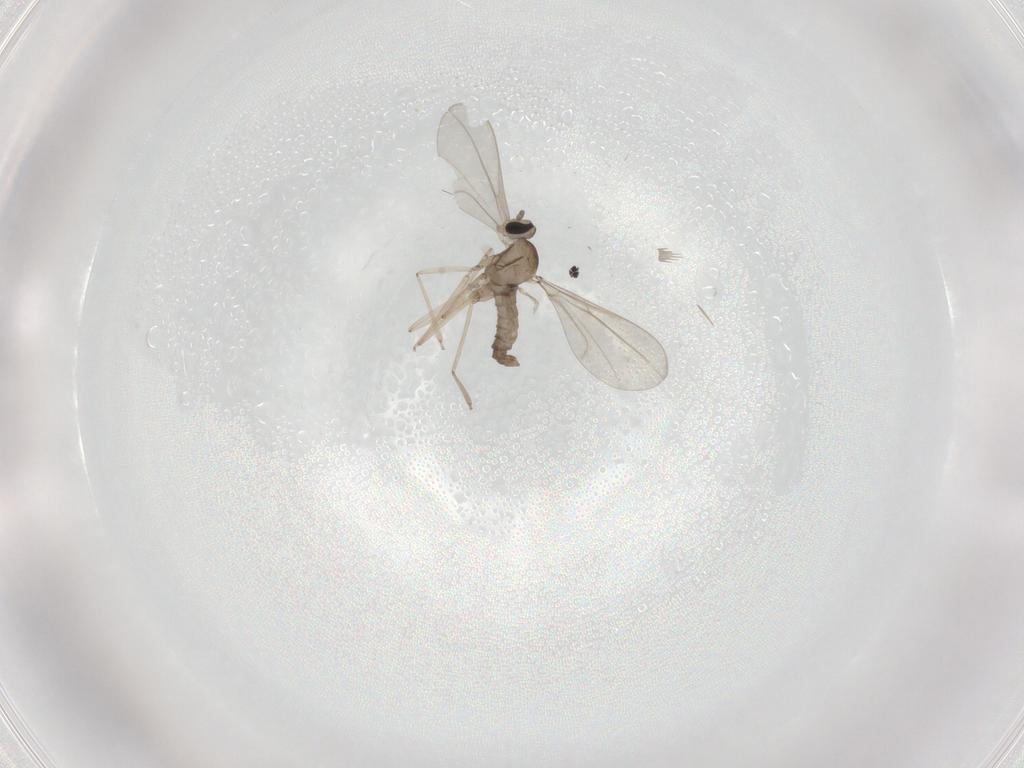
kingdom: Animalia
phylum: Arthropoda
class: Insecta
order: Diptera
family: Cecidomyiidae
